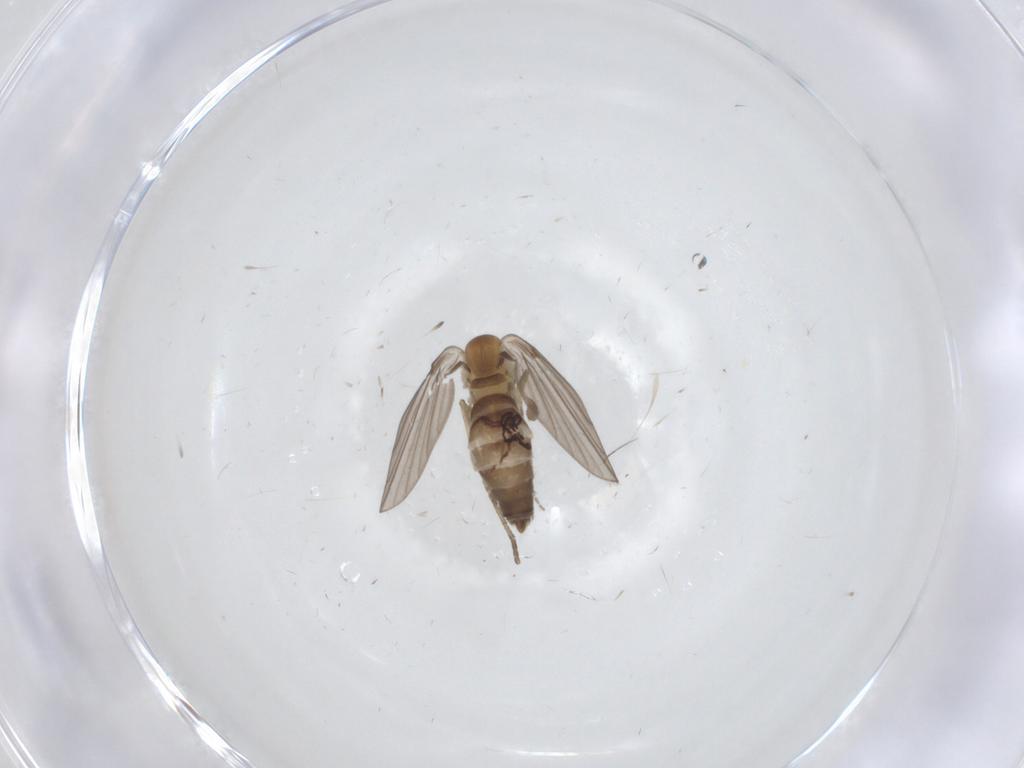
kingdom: Animalia
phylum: Arthropoda
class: Insecta
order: Diptera
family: Sciaridae
